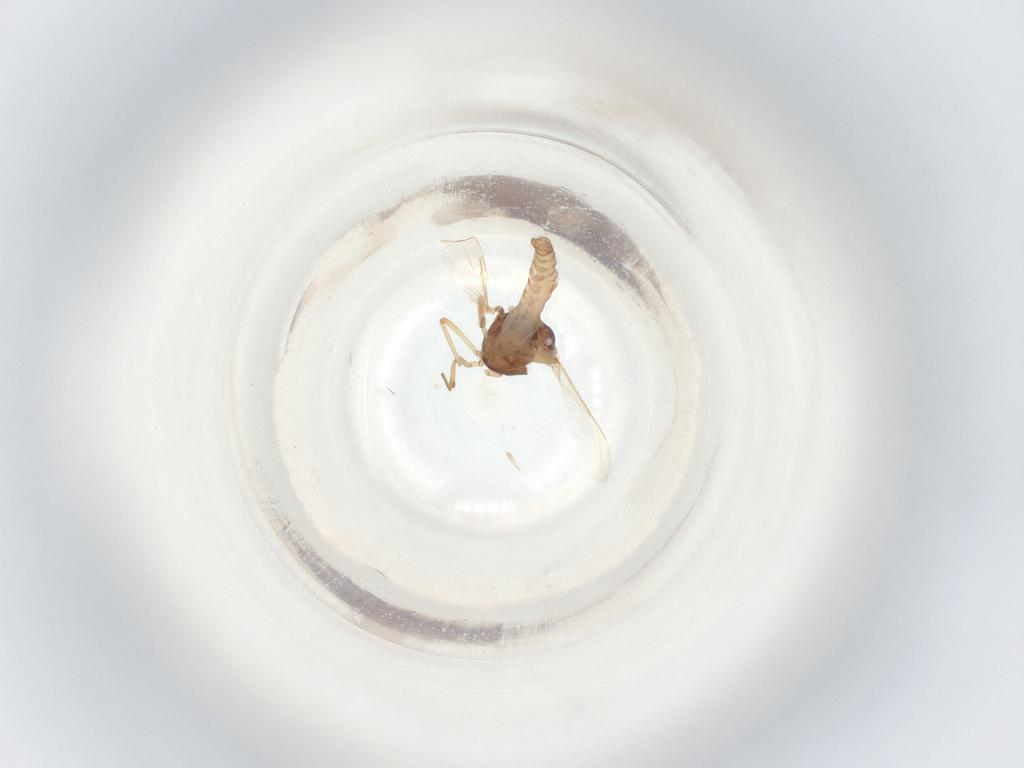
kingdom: Animalia
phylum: Arthropoda
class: Insecta
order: Diptera
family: Ceratopogonidae
